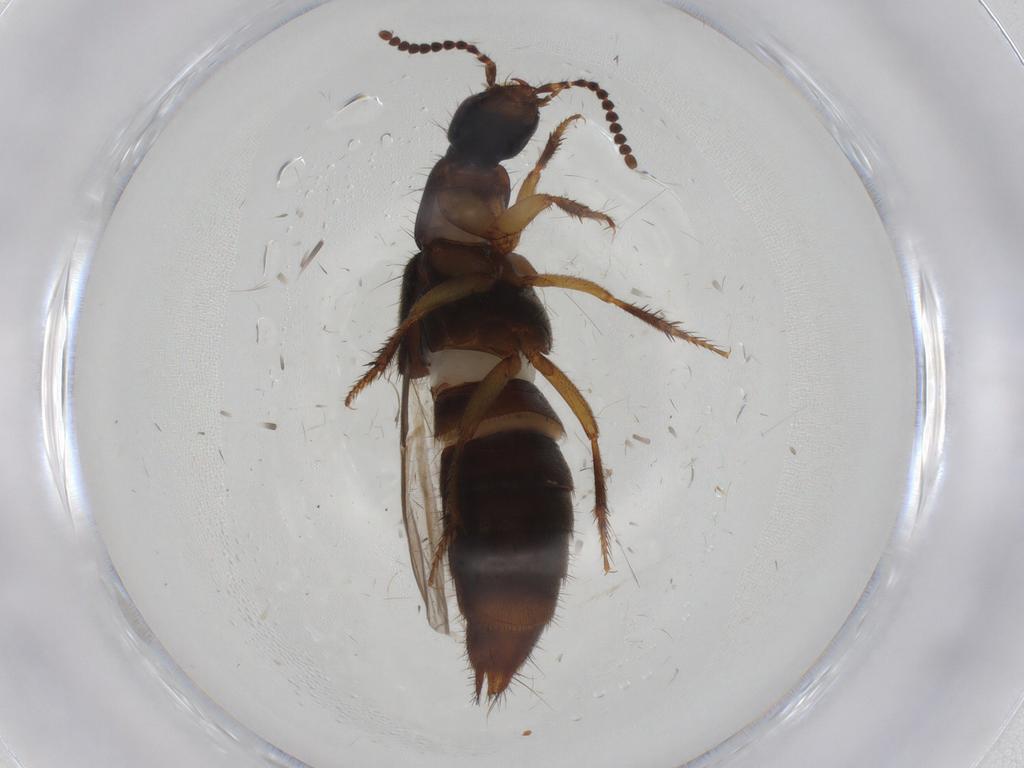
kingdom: Animalia
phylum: Arthropoda
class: Insecta
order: Coleoptera
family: Staphylinidae
